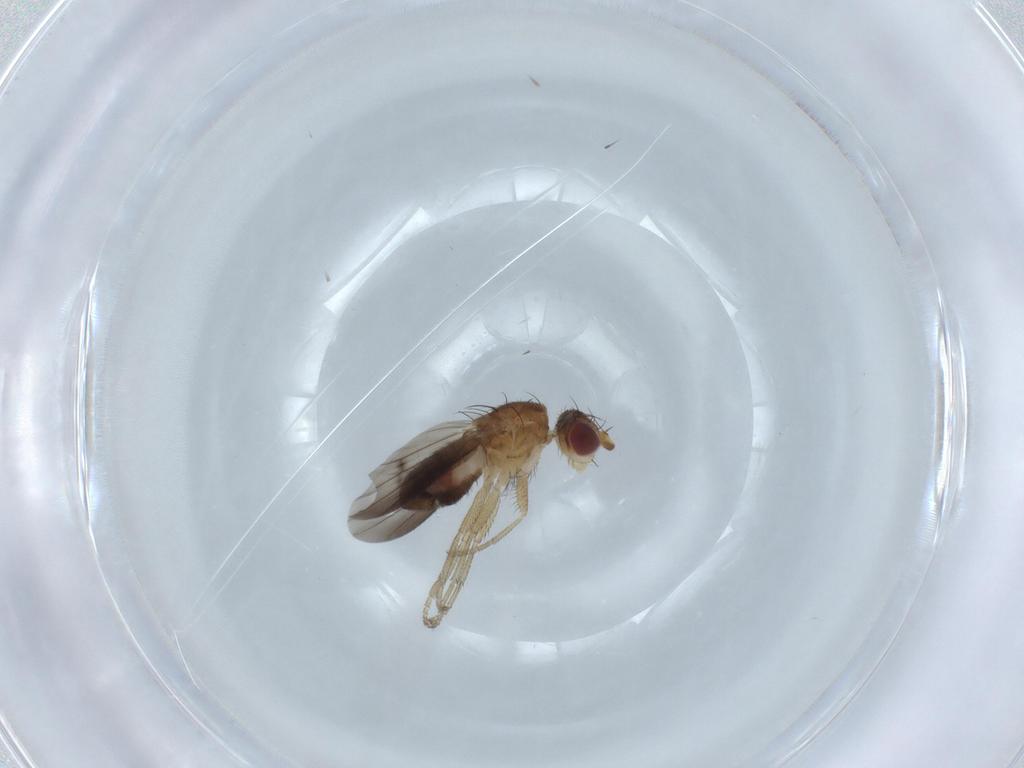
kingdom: Animalia
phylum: Arthropoda
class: Insecta
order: Diptera
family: Heleomyzidae
